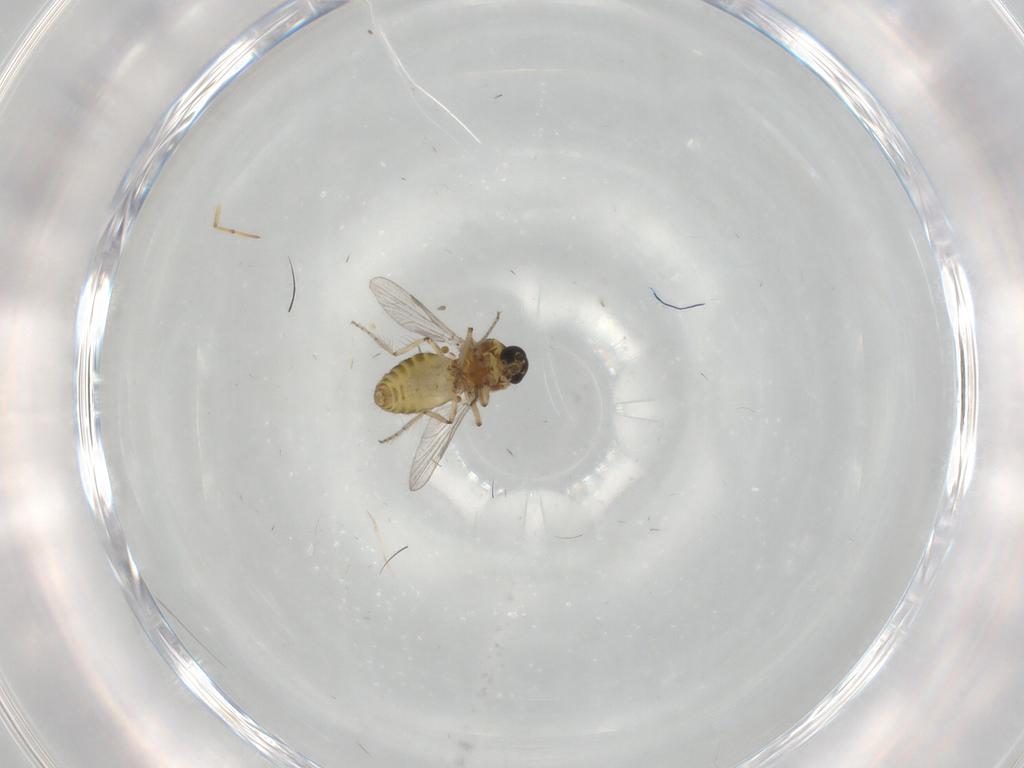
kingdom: Animalia
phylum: Arthropoda
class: Insecta
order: Diptera
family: Ceratopogonidae
